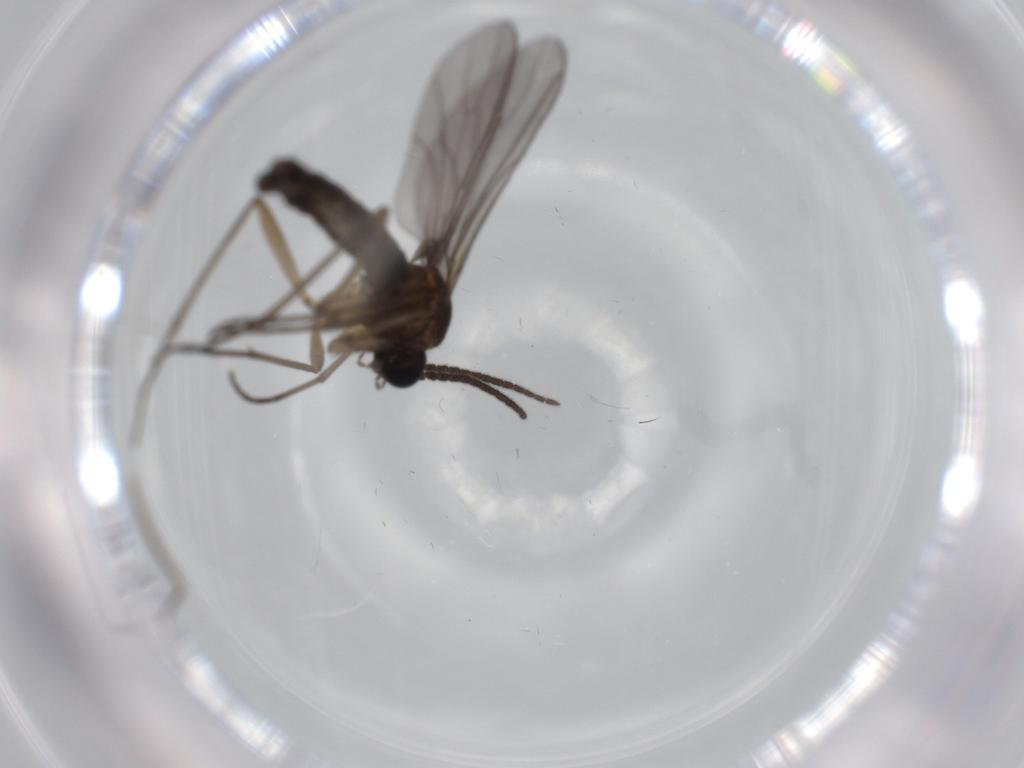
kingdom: Animalia
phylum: Arthropoda
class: Insecta
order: Diptera
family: Sciaridae
